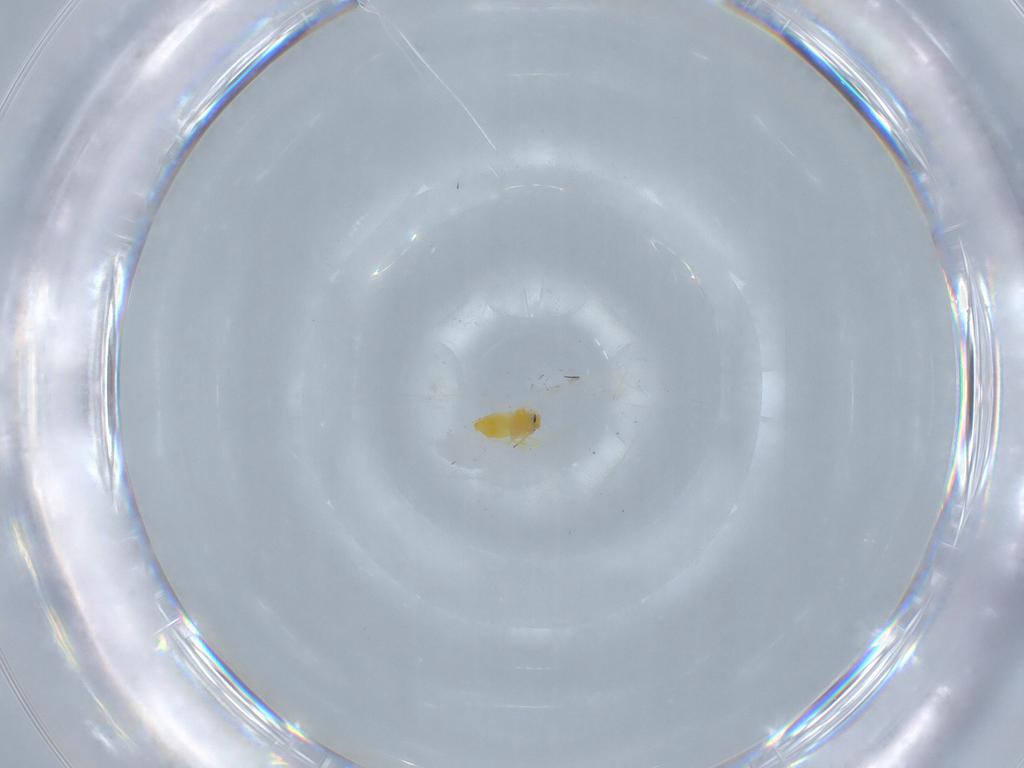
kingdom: Animalia
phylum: Arthropoda
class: Insecta
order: Hemiptera
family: Aleyrodidae
